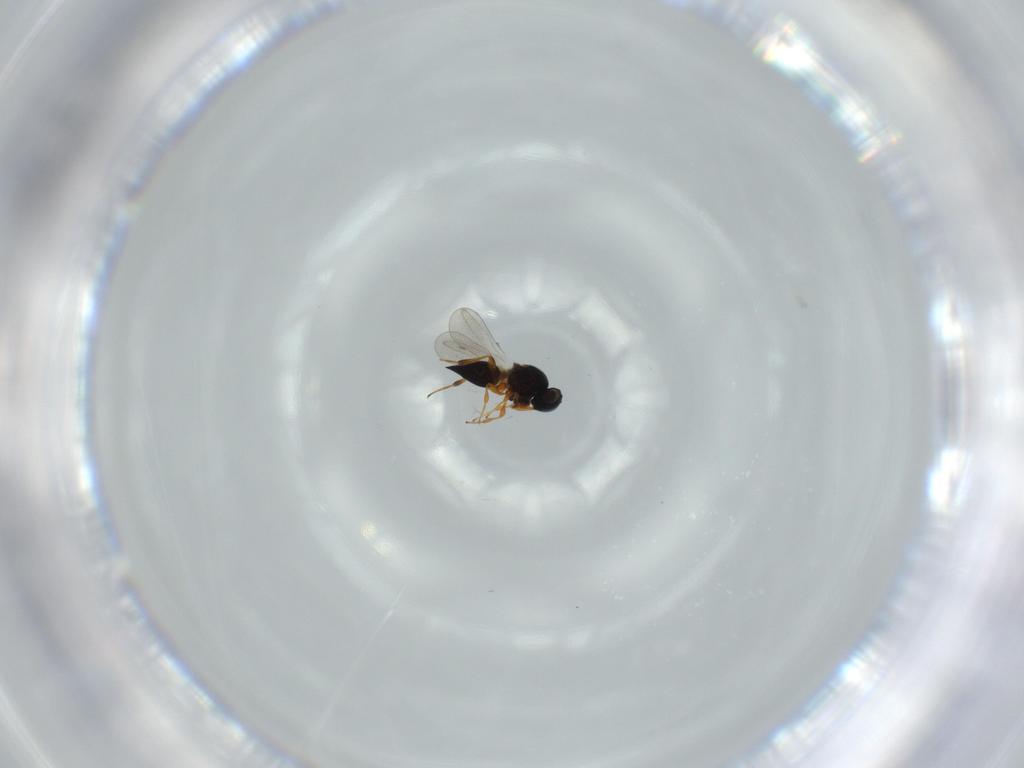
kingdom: Animalia
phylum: Arthropoda
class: Insecta
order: Hymenoptera
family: Platygastridae
